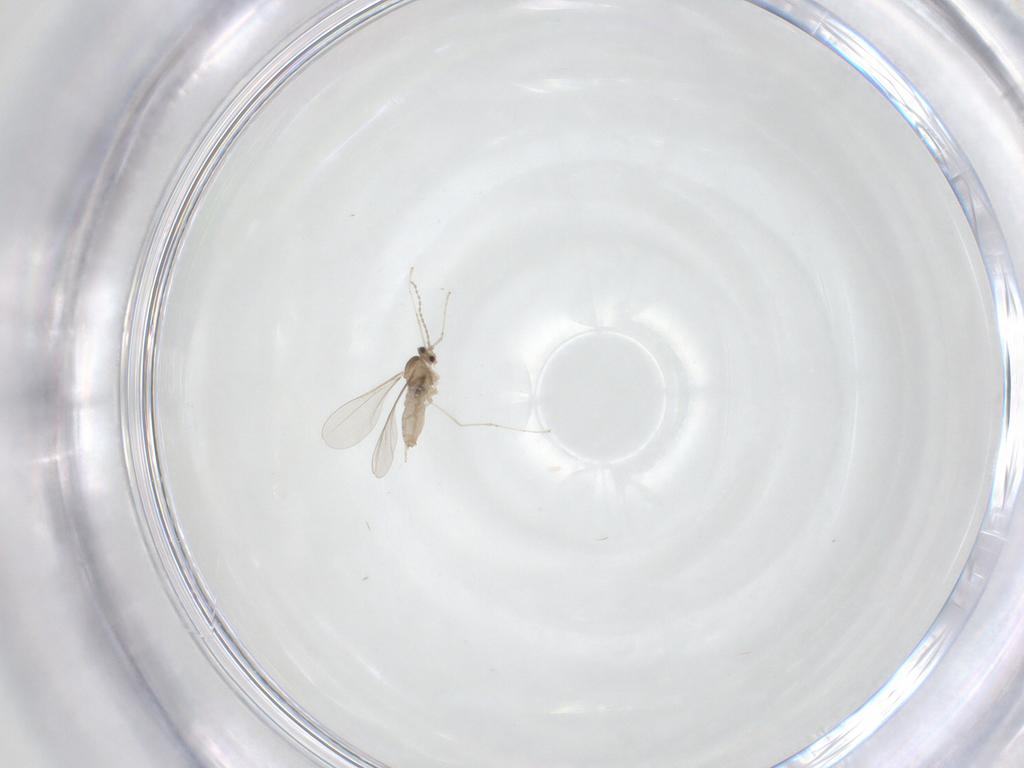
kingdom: Animalia
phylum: Arthropoda
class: Insecta
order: Diptera
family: Cecidomyiidae
